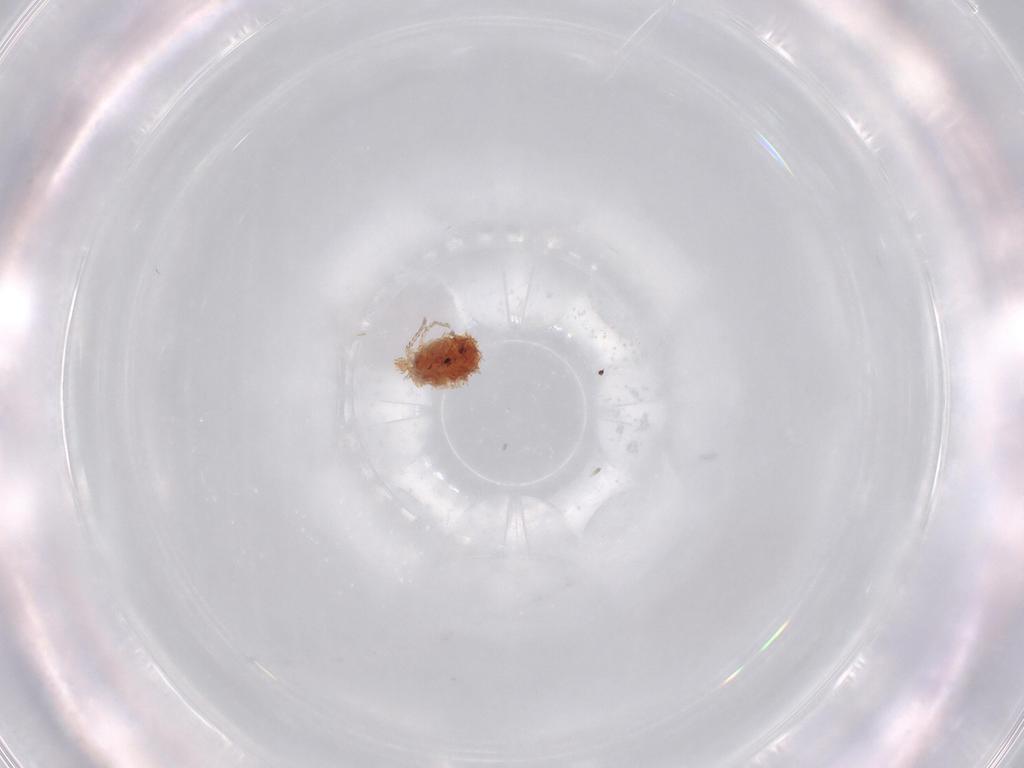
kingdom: Animalia
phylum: Arthropoda
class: Arachnida
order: Trombidiformes
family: Erythraeidae
